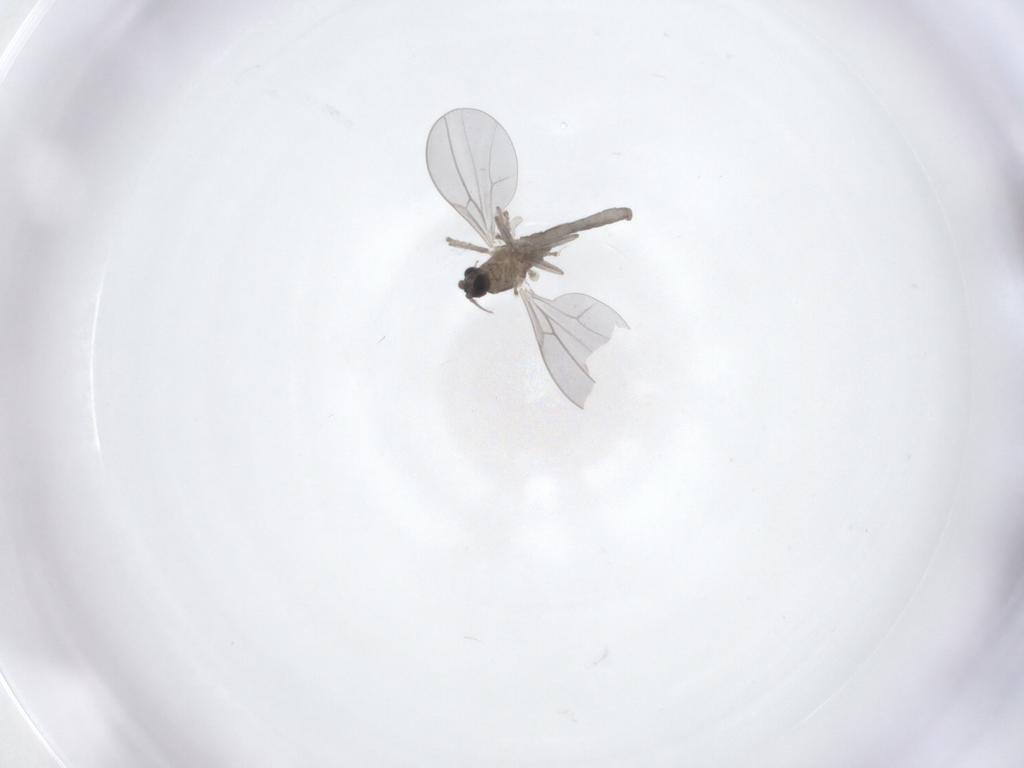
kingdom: Animalia
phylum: Arthropoda
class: Insecta
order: Diptera
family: Cecidomyiidae
